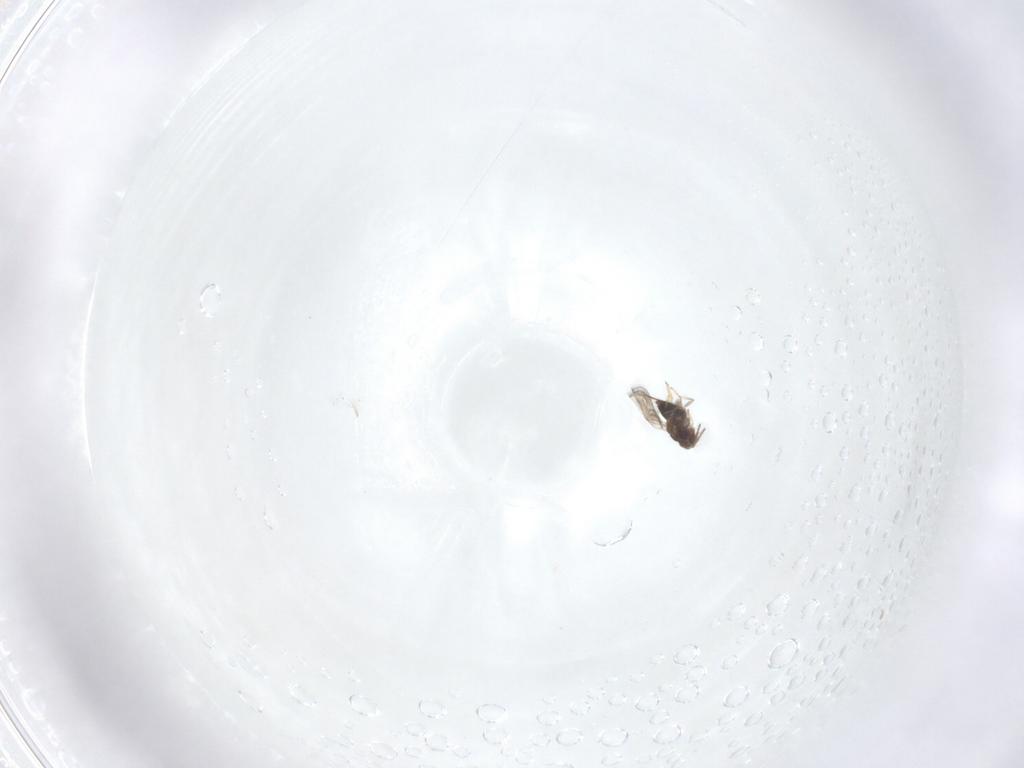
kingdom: Animalia
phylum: Arthropoda
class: Insecta
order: Hymenoptera
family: Trichogrammatidae
